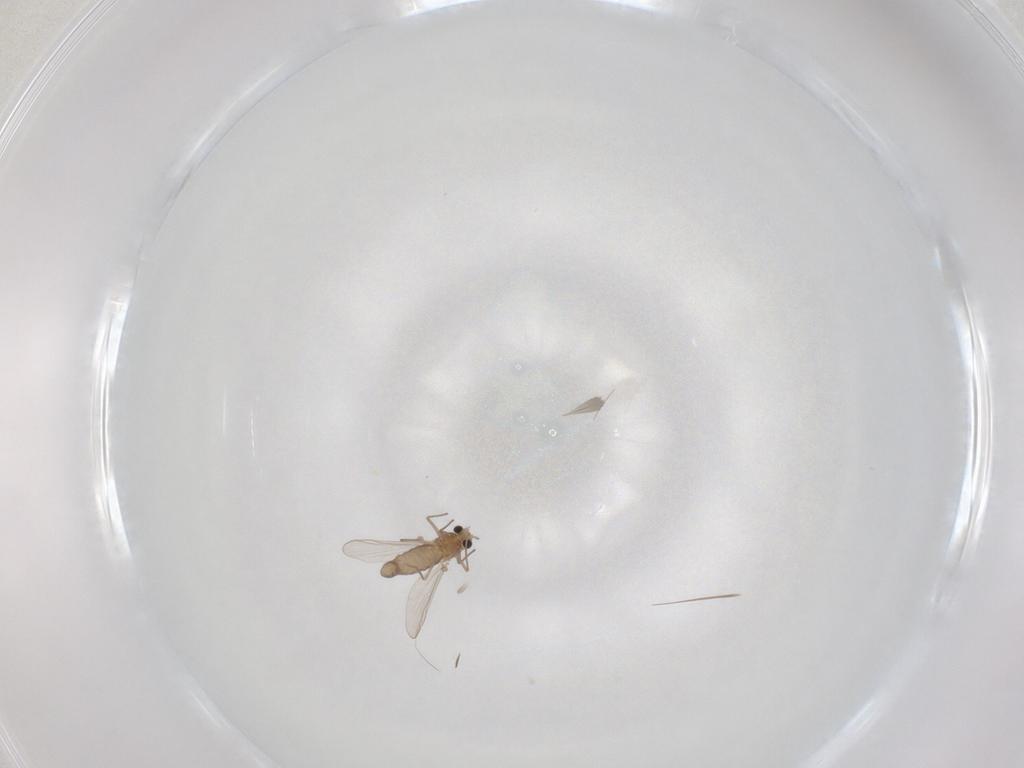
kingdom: Animalia
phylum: Arthropoda
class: Insecta
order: Diptera
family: Chironomidae
